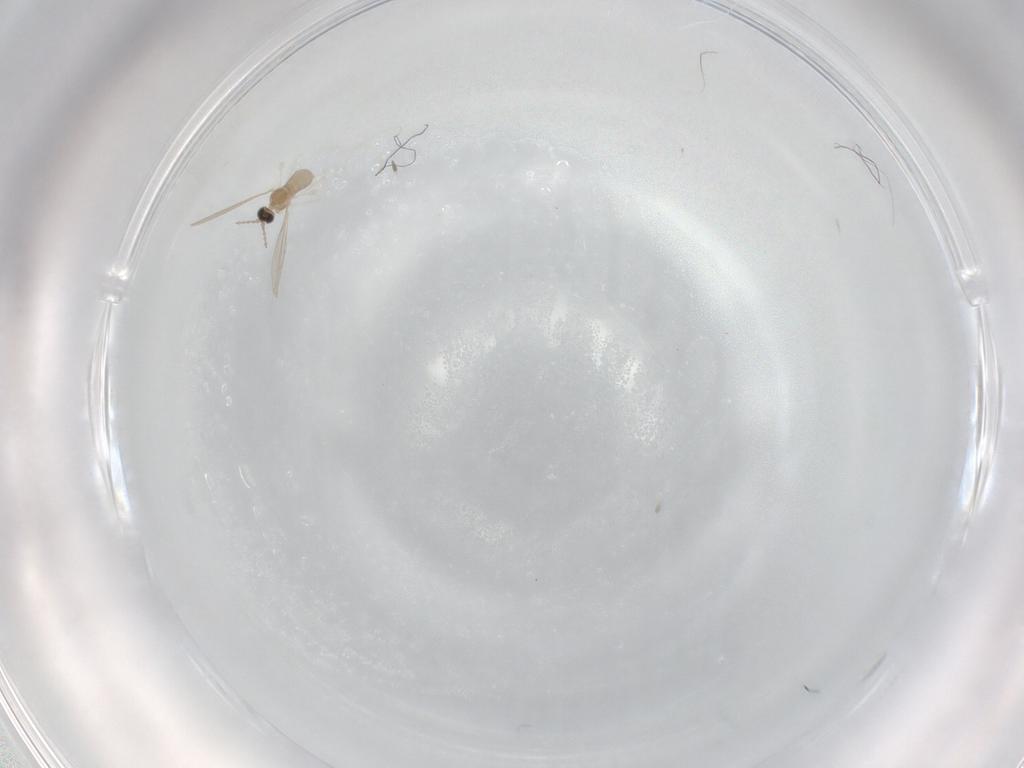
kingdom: Animalia
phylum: Arthropoda
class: Insecta
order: Diptera
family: Cecidomyiidae
